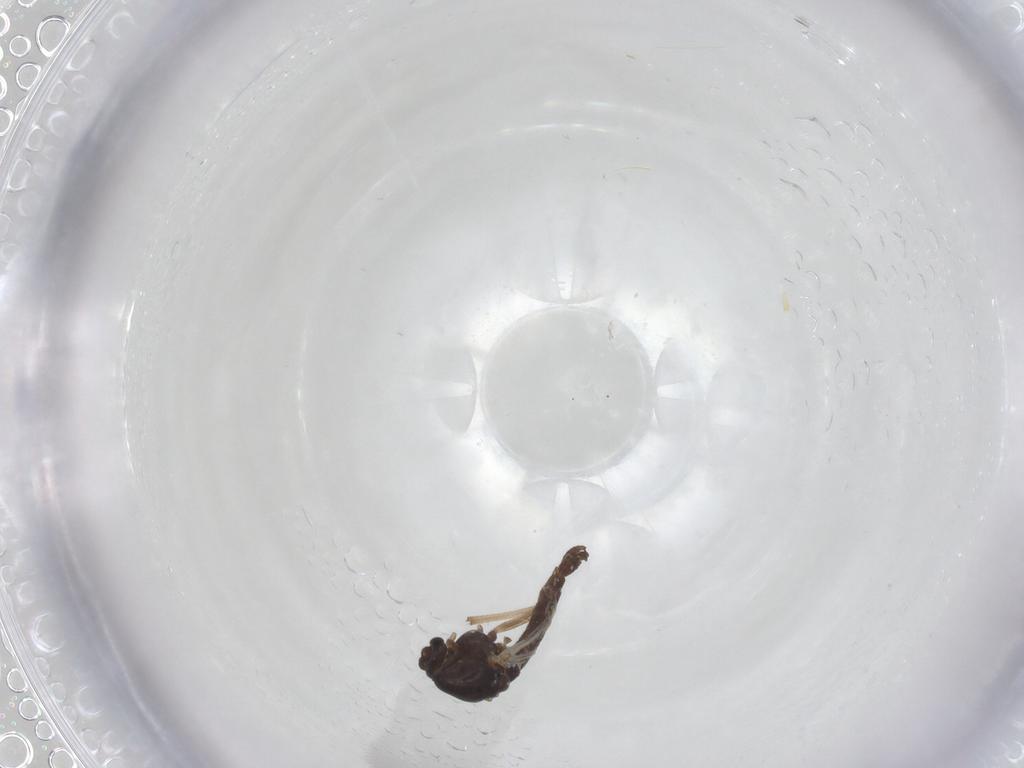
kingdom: Animalia
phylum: Arthropoda
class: Insecta
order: Diptera
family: Chironomidae
